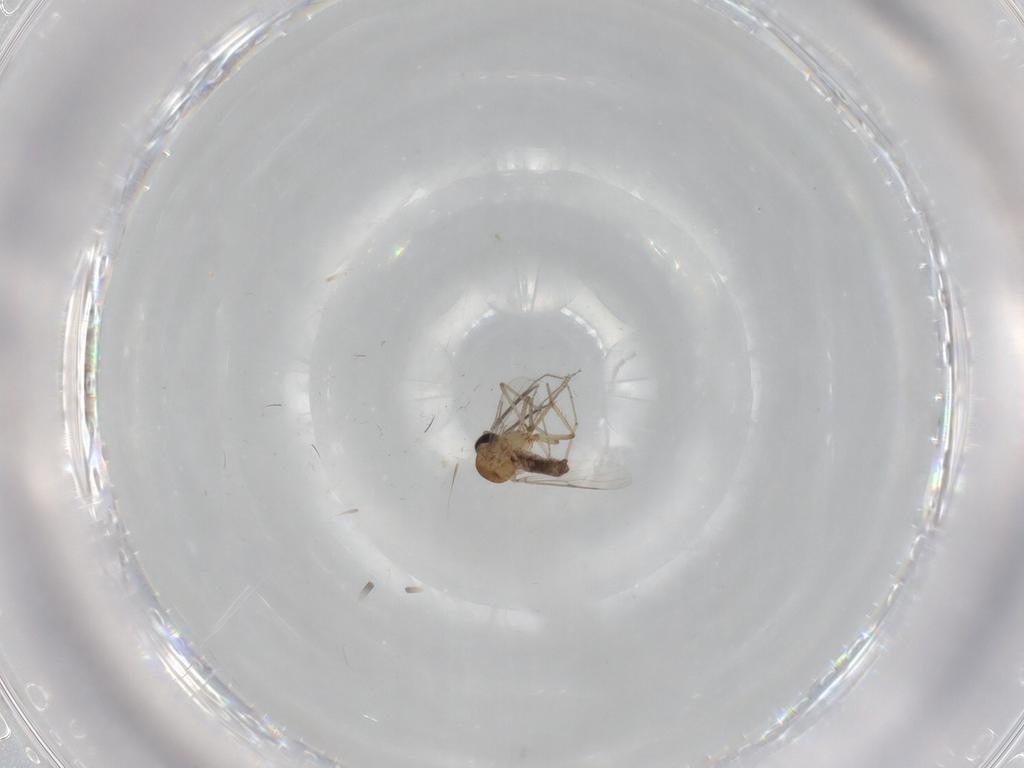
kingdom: Animalia
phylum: Arthropoda
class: Insecta
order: Diptera
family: Ceratopogonidae
